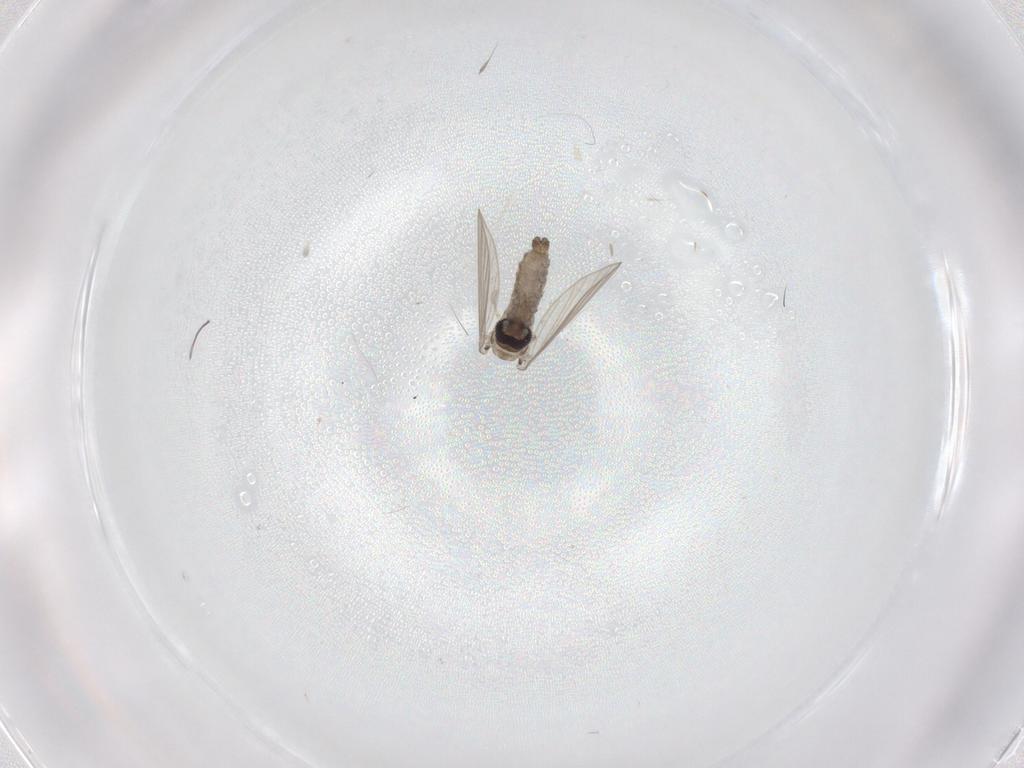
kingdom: Animalia
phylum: Arthropoda
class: Insecta
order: Diptera
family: Psychodidae
